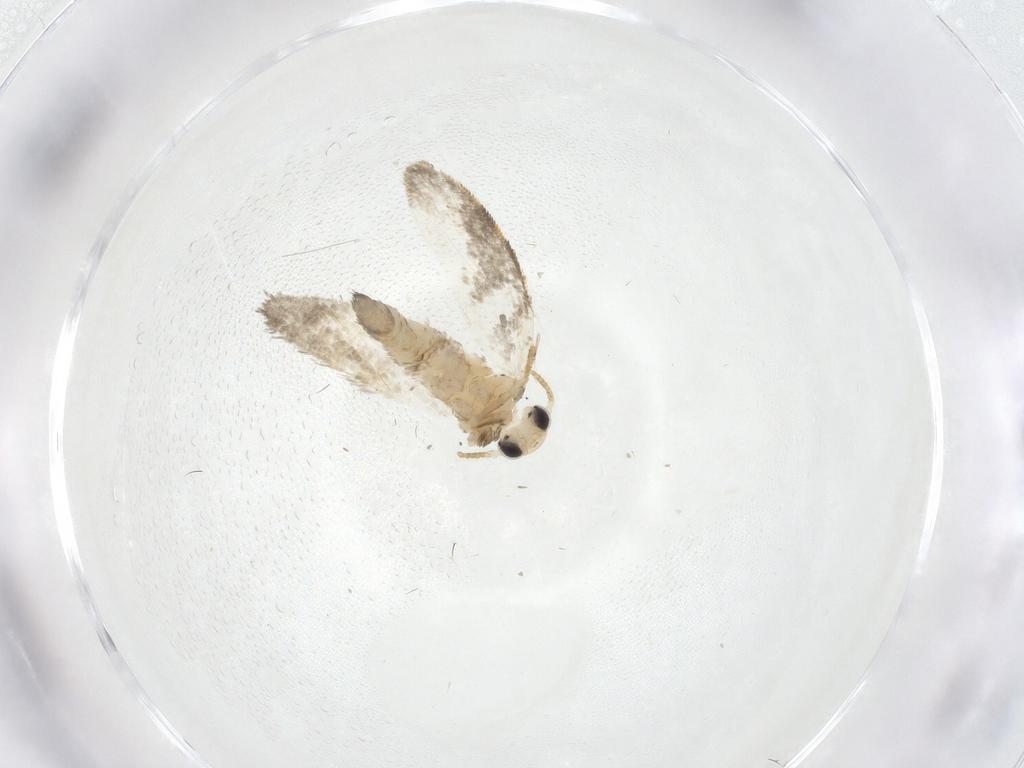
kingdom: Animalia
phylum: Arthropoda
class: Insecta
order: Lepidoptera
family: Psychidae
